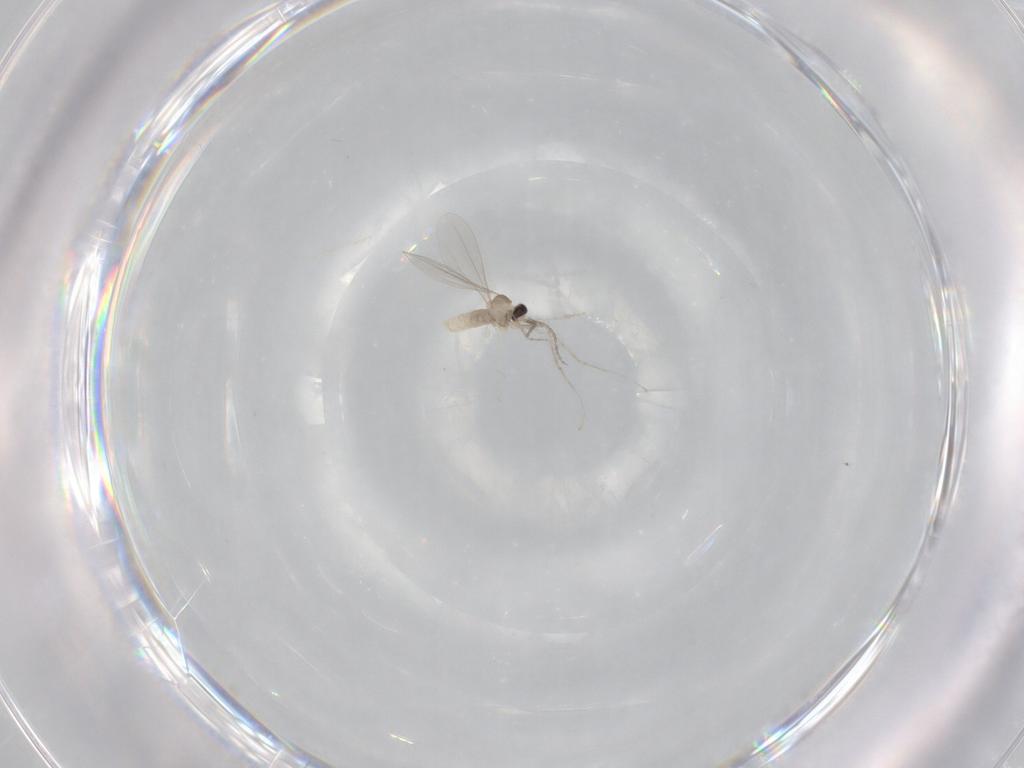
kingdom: Animalia
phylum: Arthropoda
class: Insecta
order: Diptera
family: Cecidomyiidae
